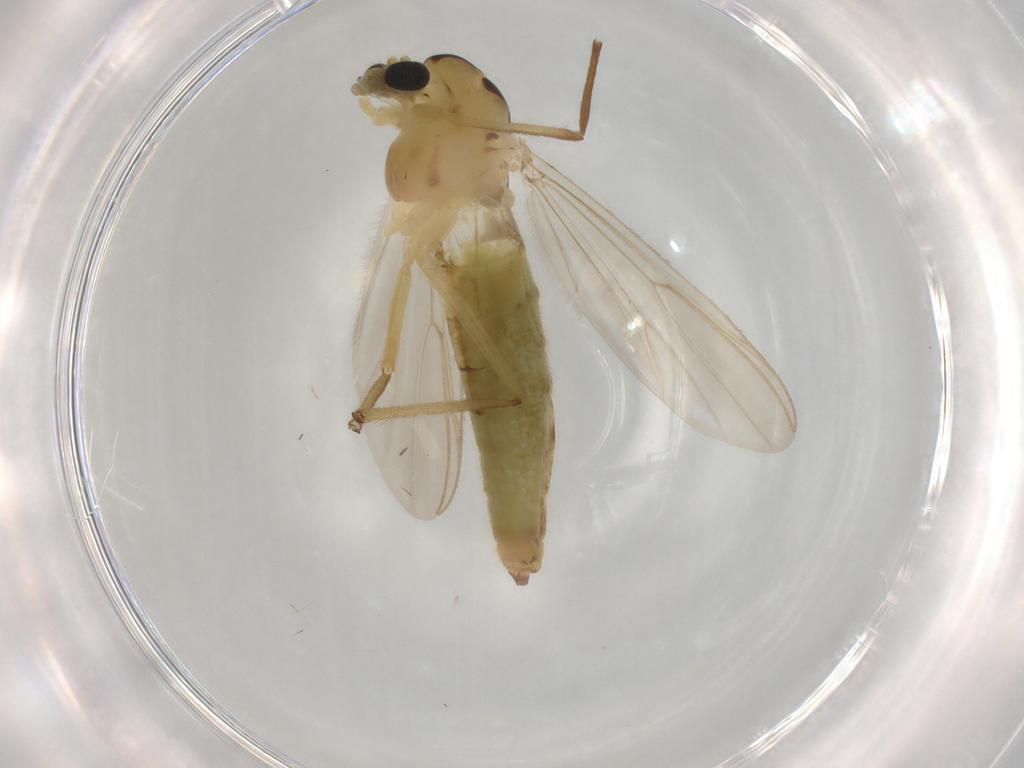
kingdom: Animalia
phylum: Arthropoda
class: Insecta
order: Diptera
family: Chironomidae
